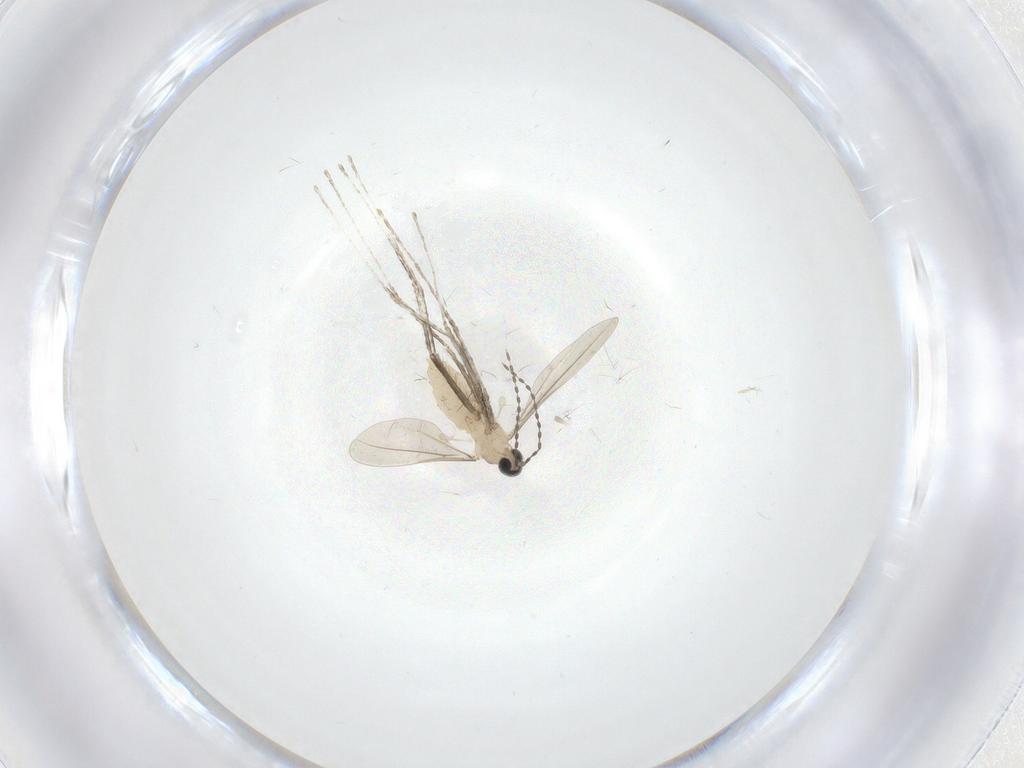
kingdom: Animalia
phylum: Arthropoda
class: Insecta
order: Diptera
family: Cecidomyiidae
